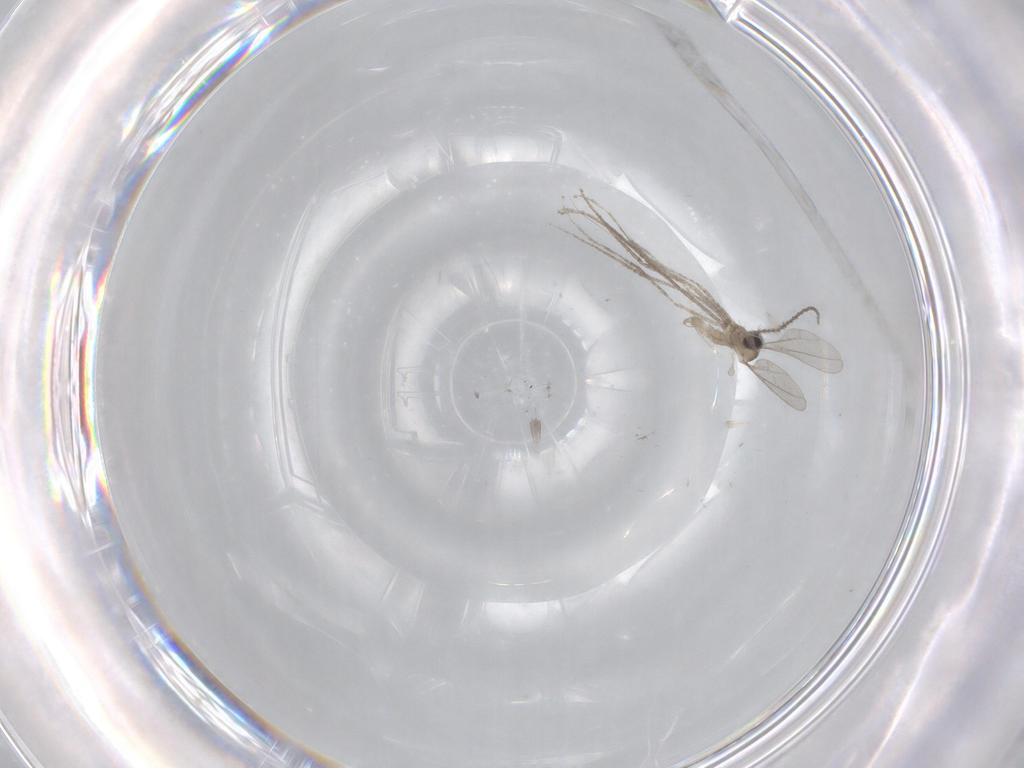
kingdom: Animalia
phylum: Arthropoda
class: Insecta
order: Diptera
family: Cecidomyiidae
